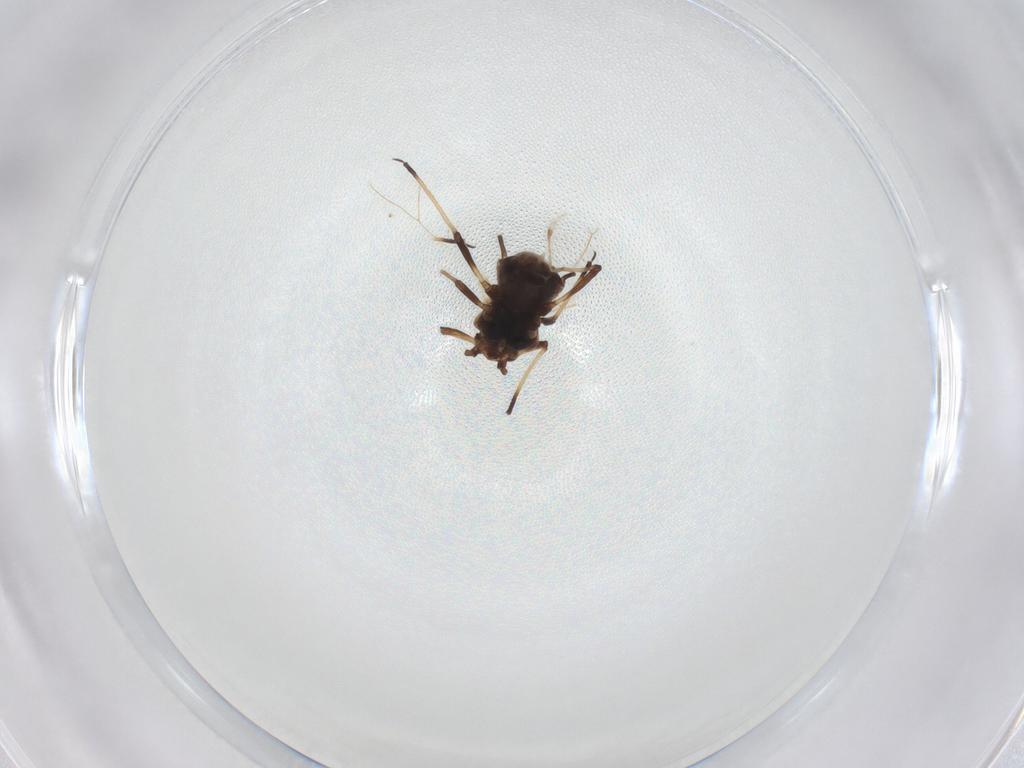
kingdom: Animalia
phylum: Arthropoda
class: Insecta
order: Hemiptera
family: Aphididae
